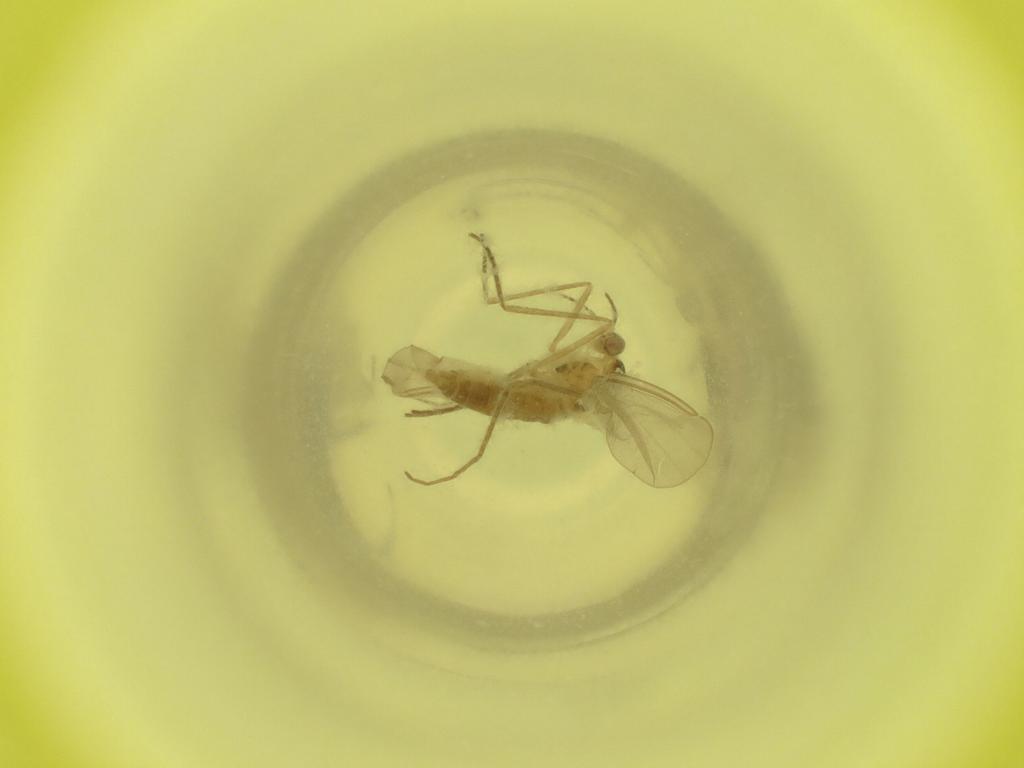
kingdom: Animalia
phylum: Arthropoda
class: Insecta
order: Diptera
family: Cecidomyiidae
